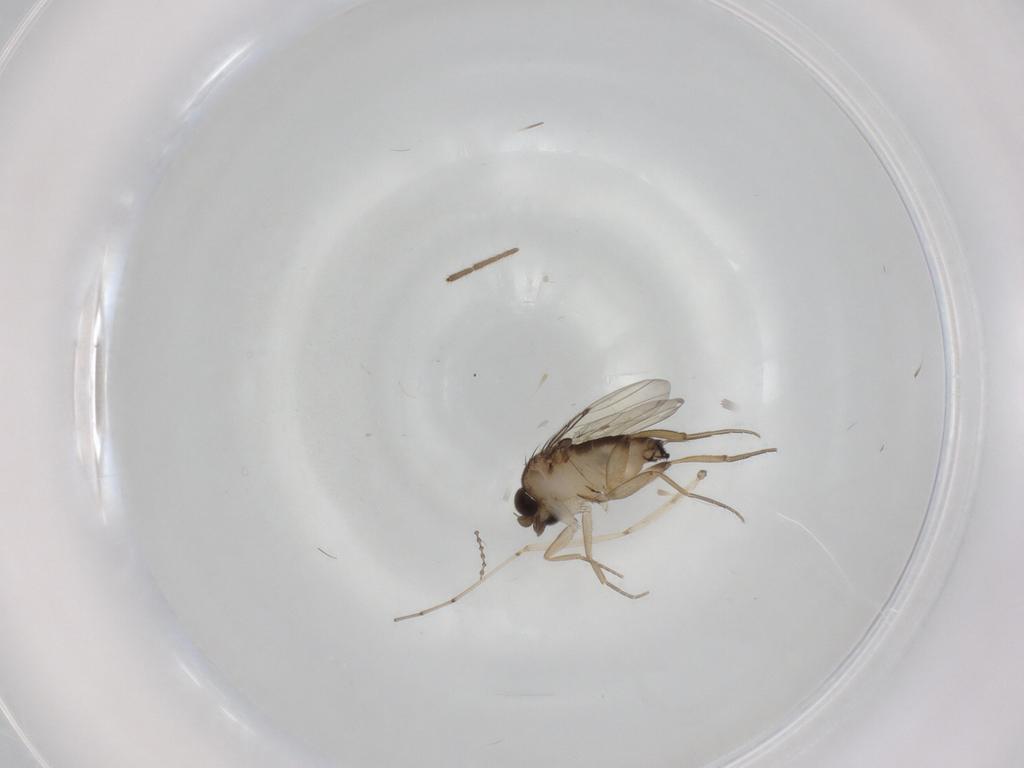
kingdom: Animalia
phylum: Arthropoda
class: Insecta
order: Diptera
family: Phoridae
